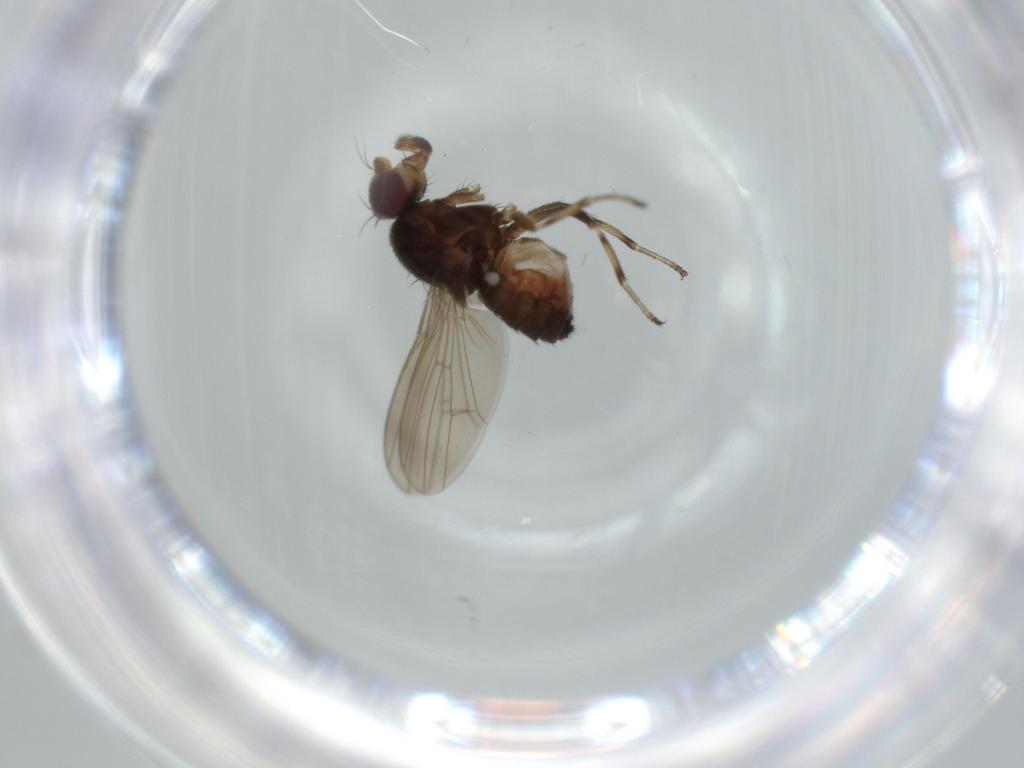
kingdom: Animalia
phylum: Arthropoda
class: Insecta
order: Diptera
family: Heleomyzidae
